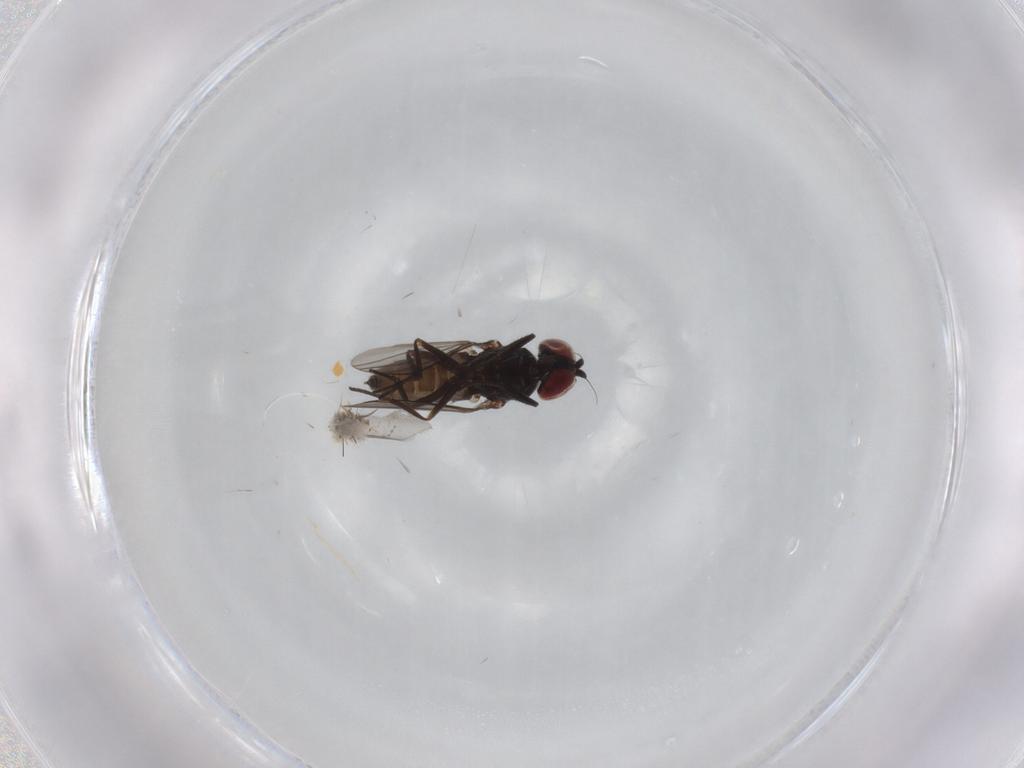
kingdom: Animalia
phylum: Arthropoda
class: Insecta
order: Diptera
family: Dolichopodidae
